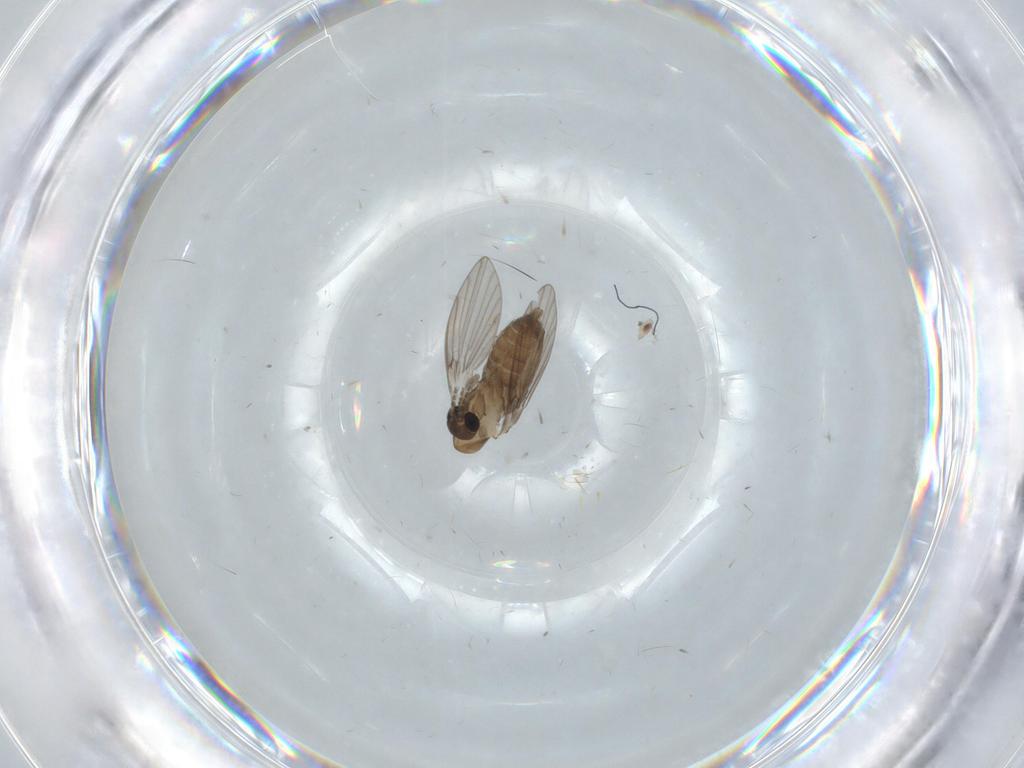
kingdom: Animalia
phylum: Arthropoda
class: Insecta
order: Diptera
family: Psychodidae
